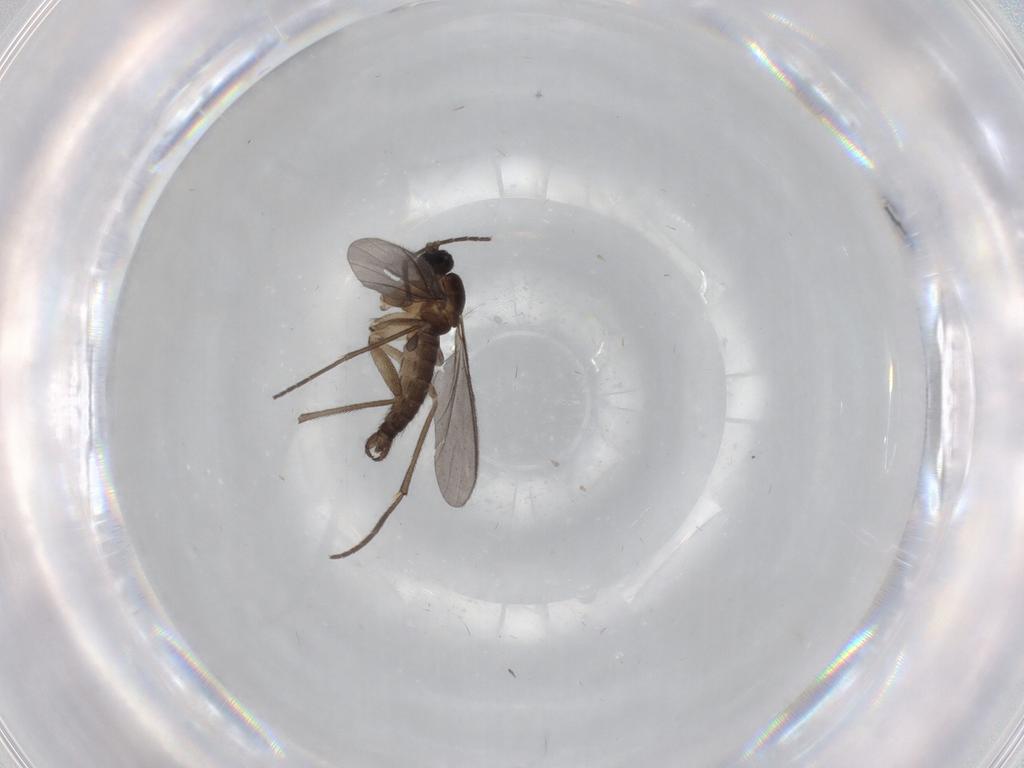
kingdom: Animalia
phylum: Arthropoda
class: Insecta
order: Diptera
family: Sciaridae
